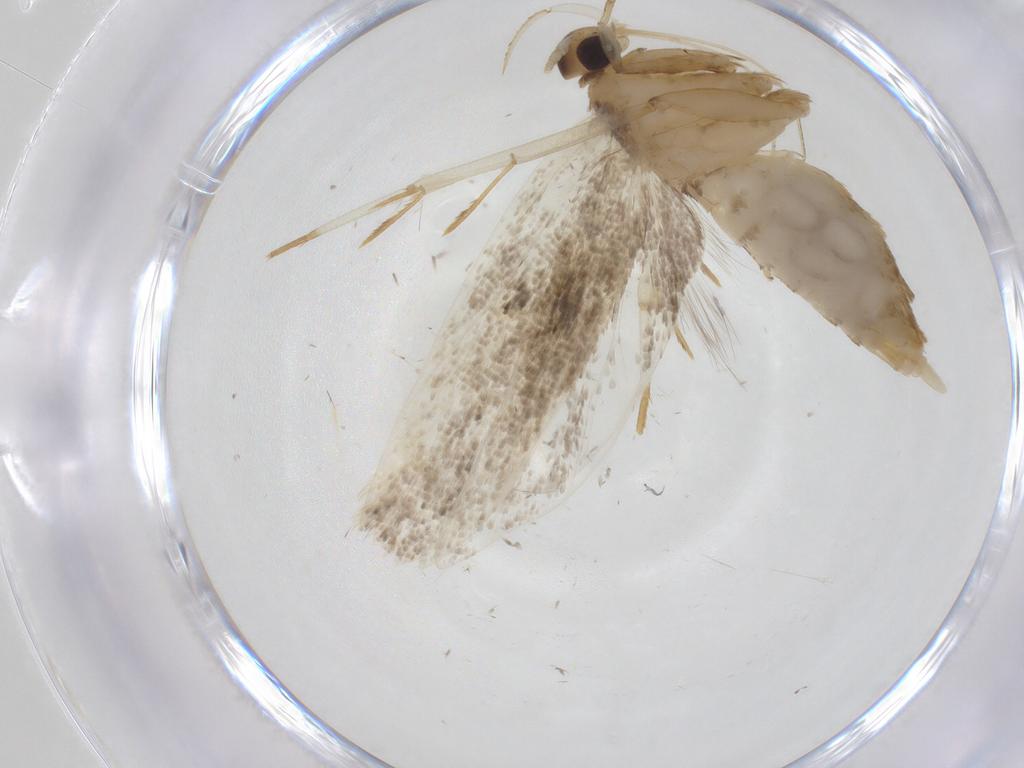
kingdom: Animalia
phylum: Arthropoda
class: Insecta
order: Lepidoptera
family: Lecithoceridae
